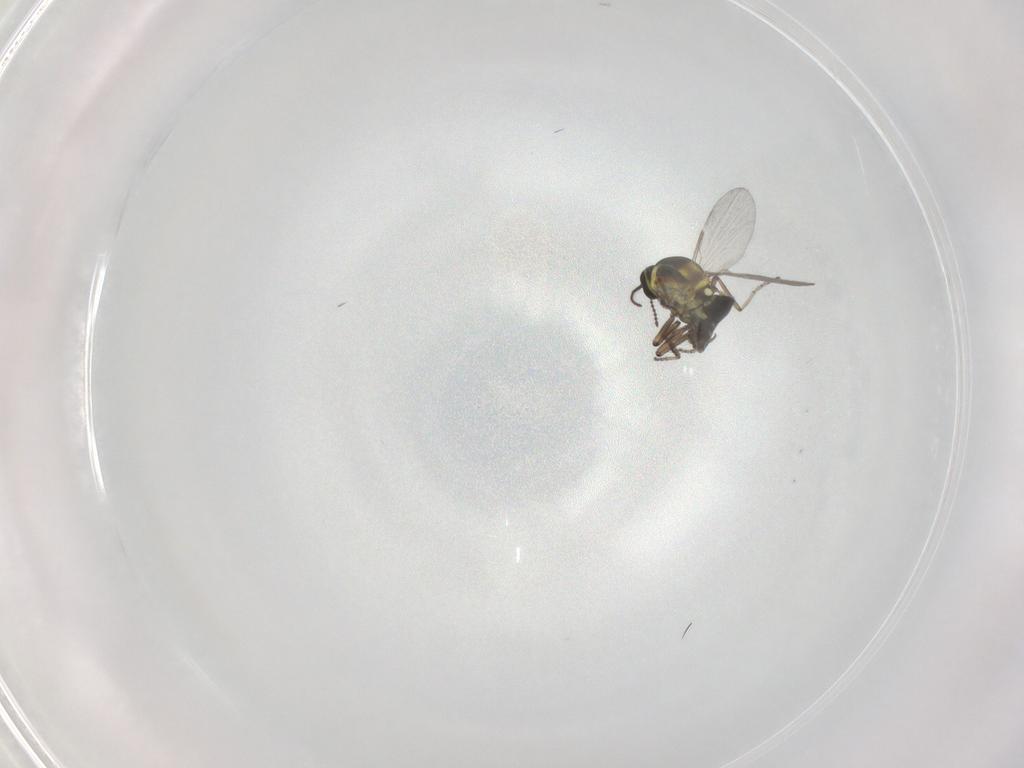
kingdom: Animalia
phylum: Arthropoda
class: Insecta
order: Diptera
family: Ceratopogonidae
